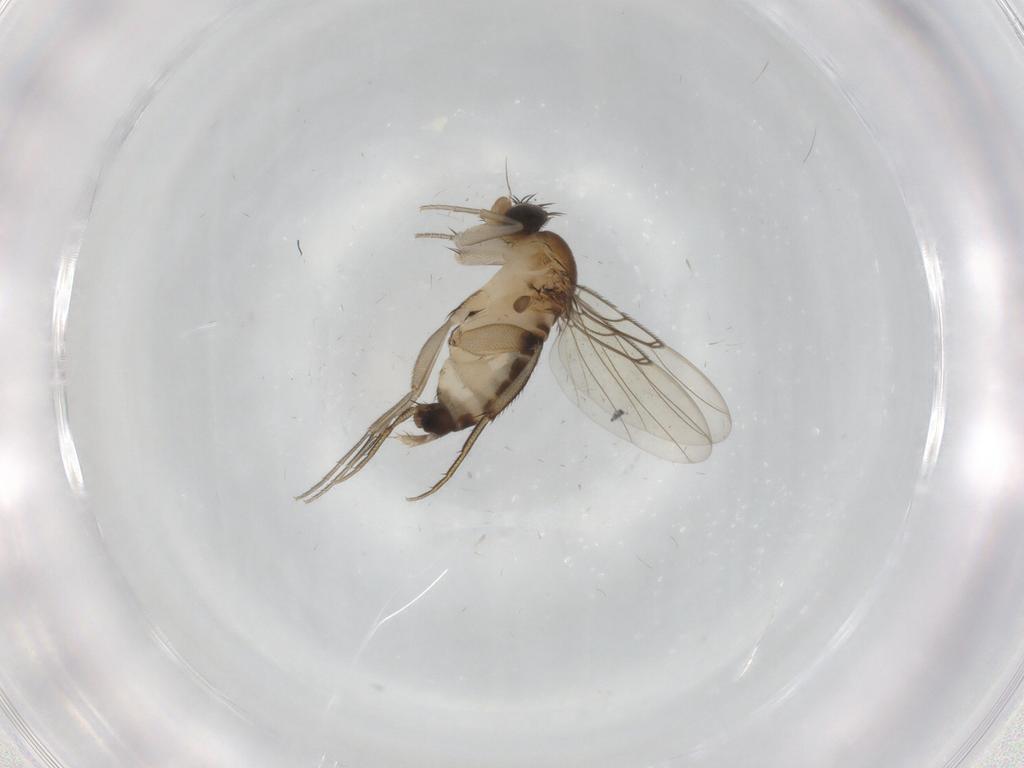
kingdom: Animalia
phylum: Arthropoda
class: Insecta
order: Diptera
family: Phoridae
